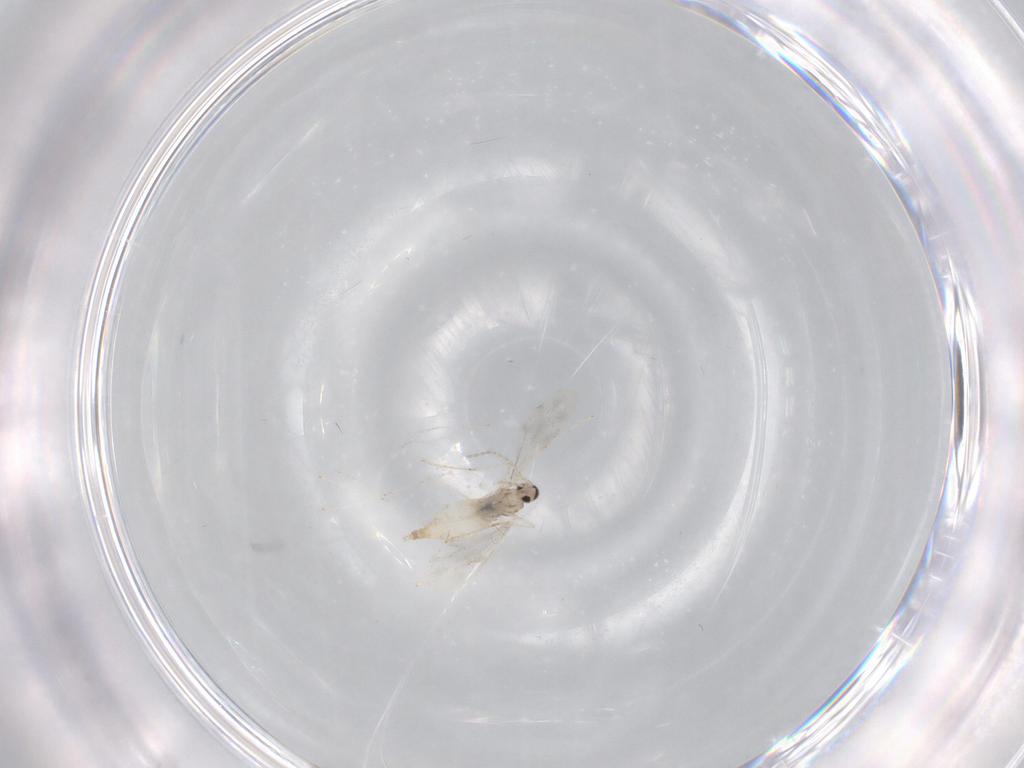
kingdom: Animalia
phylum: Arthropoda
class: Insecta
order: Diptera
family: Cecidomyiidae
